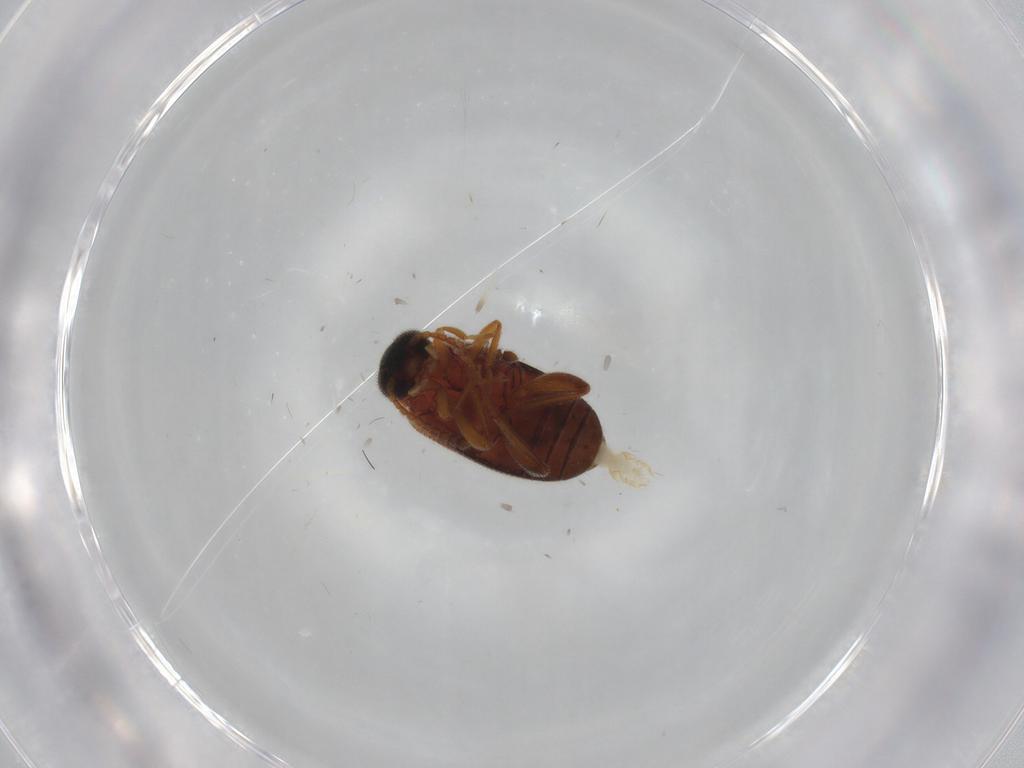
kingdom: Animalia
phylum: Arthropoda
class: Insecta
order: Coleoptera
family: Aderidae
